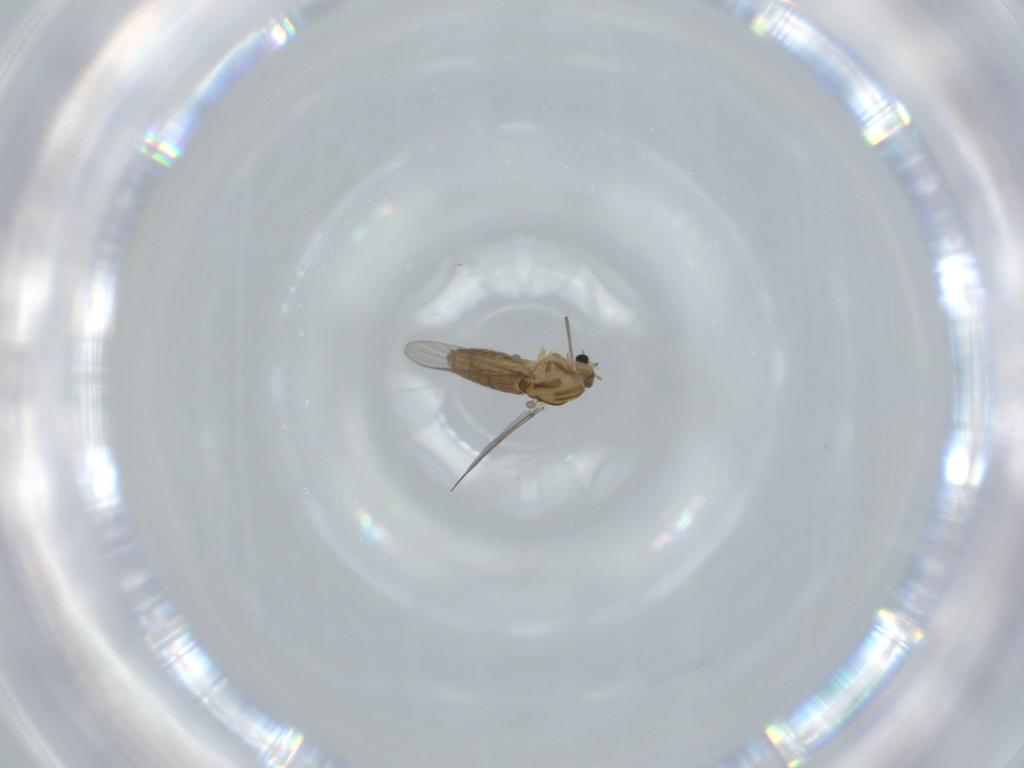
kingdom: Animalia
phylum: Arthropoda
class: Insecta
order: Diptera
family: Chironomidae
